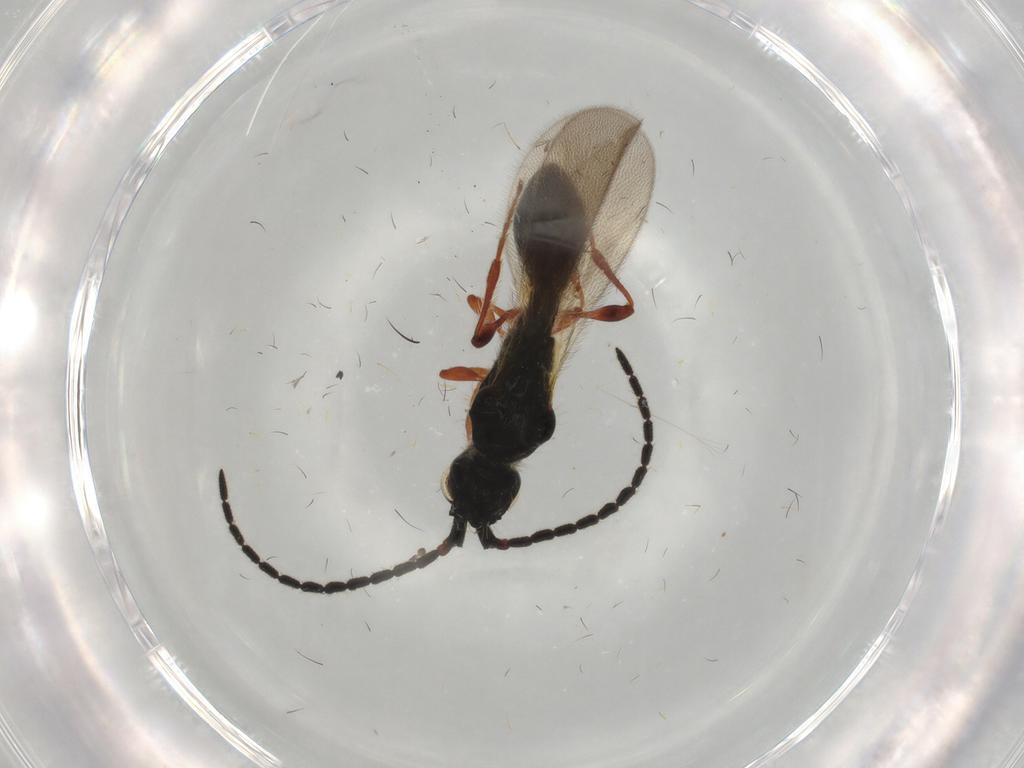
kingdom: Animalia
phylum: Arthropoda
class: Insecta
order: Hymenoptera
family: Diapriidae
